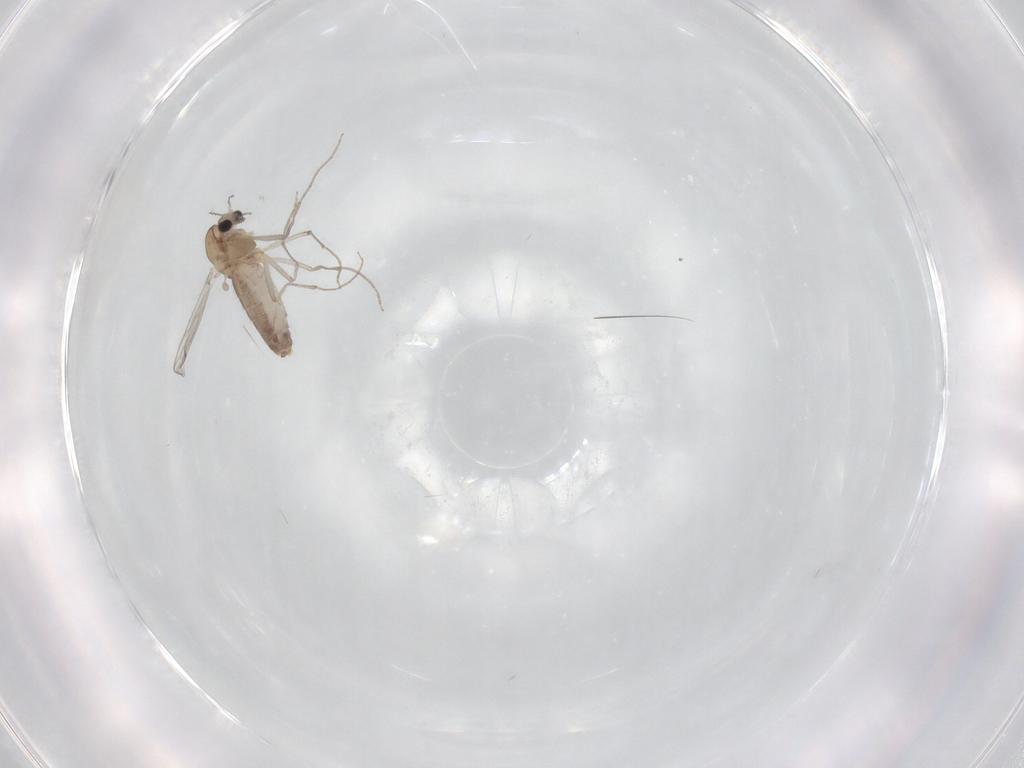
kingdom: Animalia
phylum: Arthropoda
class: Insecta
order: Diptera
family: Chironomidae
